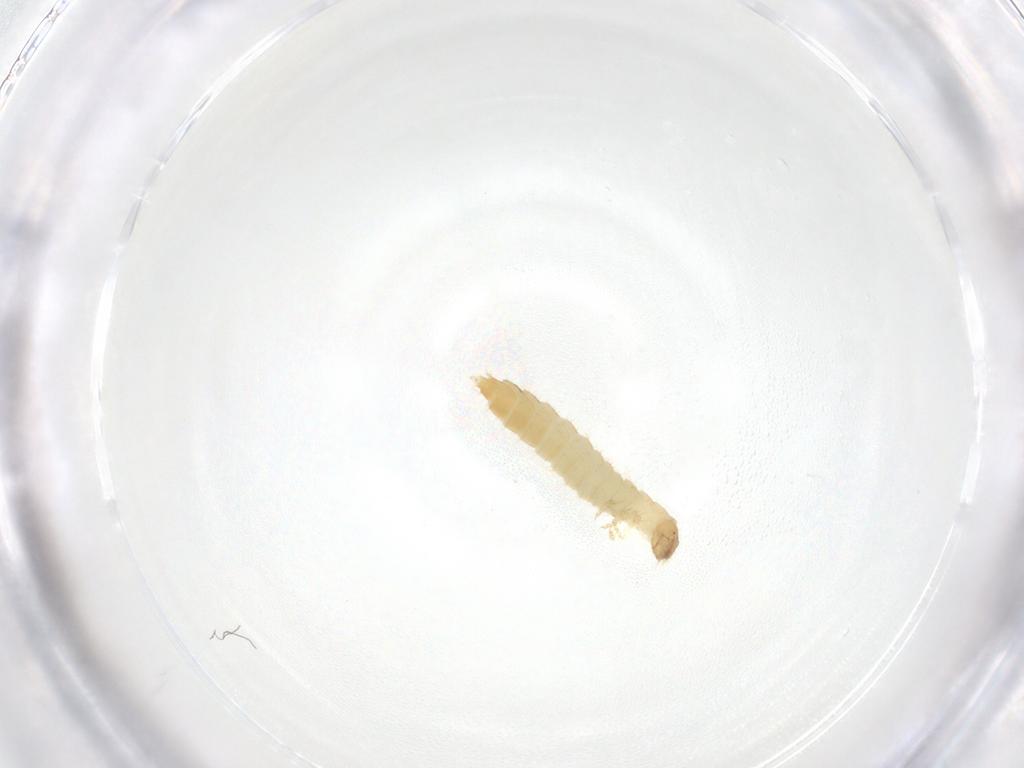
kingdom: Animalia
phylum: Arthropoda
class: Insecta
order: Coleoptera
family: Staphylinidae
